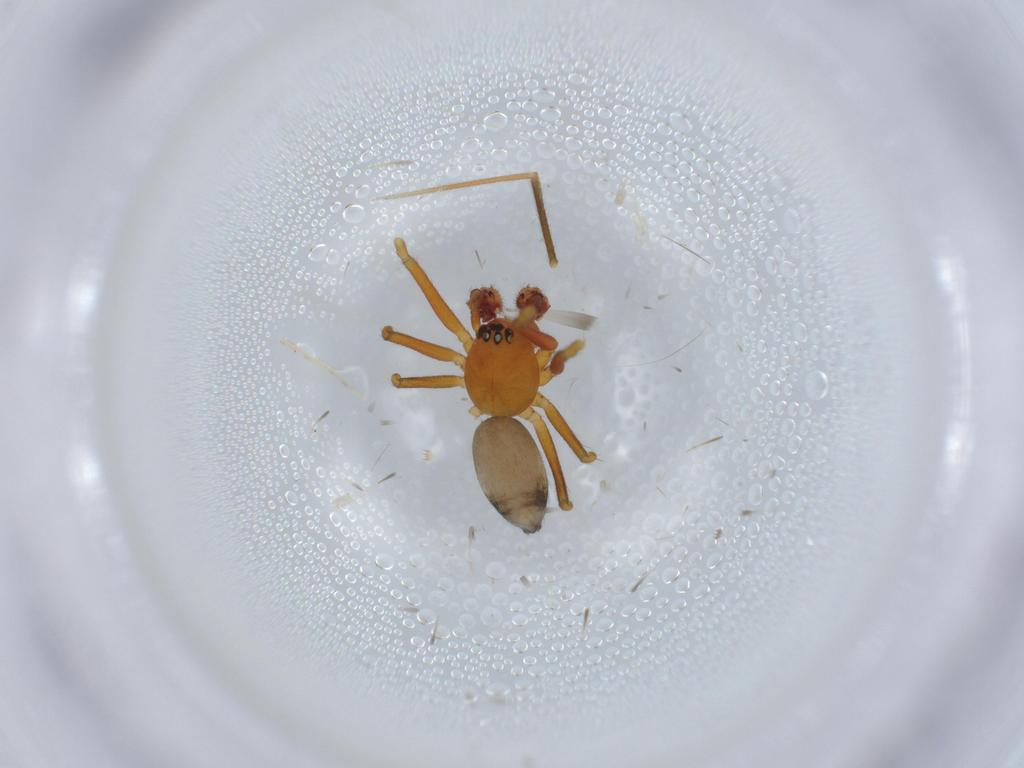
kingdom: Animalia
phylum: Arthropoda
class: Arachnida
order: Araneae
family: Linyphiidae
